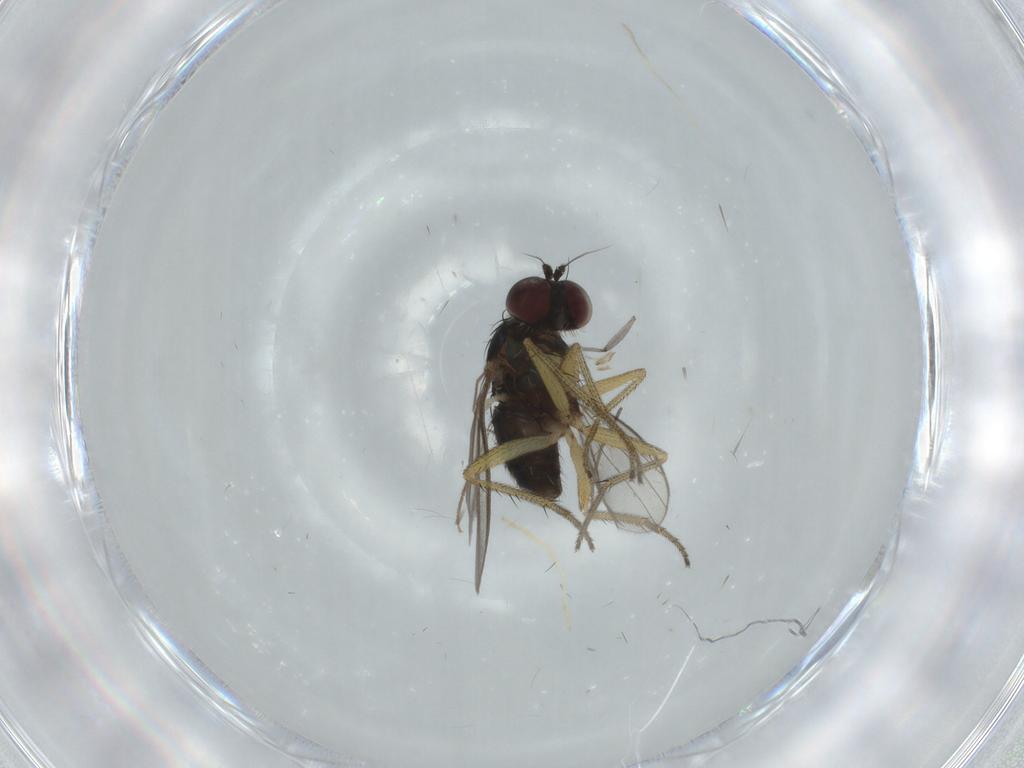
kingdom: Animalia
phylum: Arthropoda
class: Insecta
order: Diptera
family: Sciaridae
